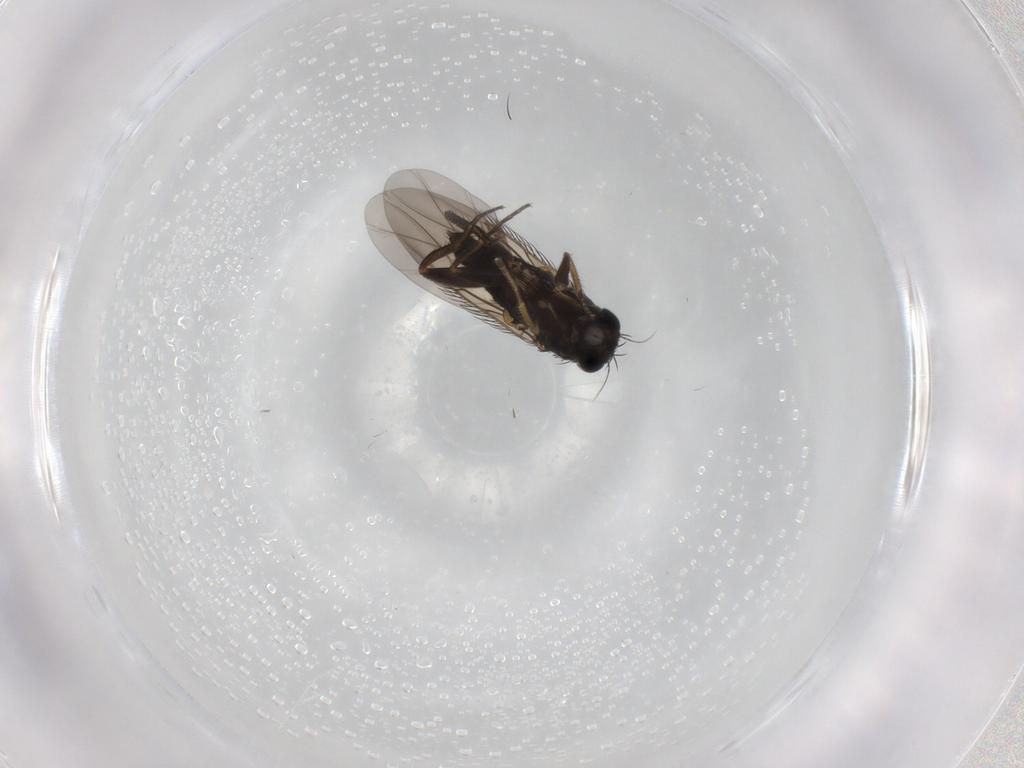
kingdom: Animalia
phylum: Arthropoda
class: Insecta
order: Diptera
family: Phoridae
